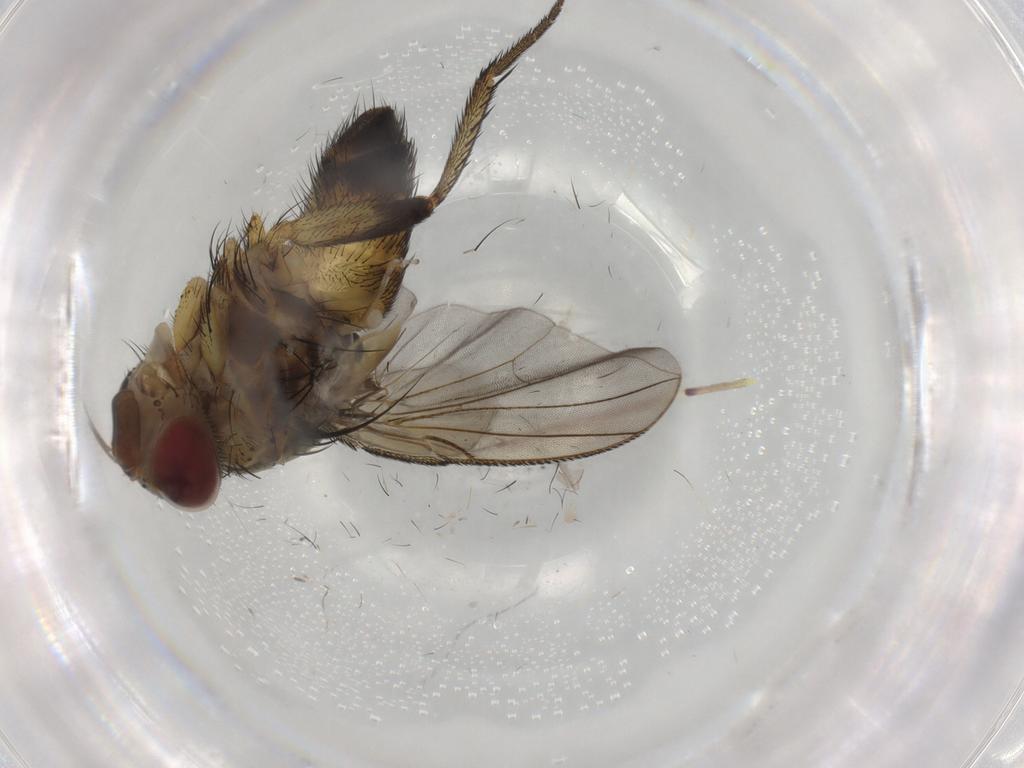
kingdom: Animalia
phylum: Arthropoda
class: Insecta
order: Diptera
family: Tachinidae
